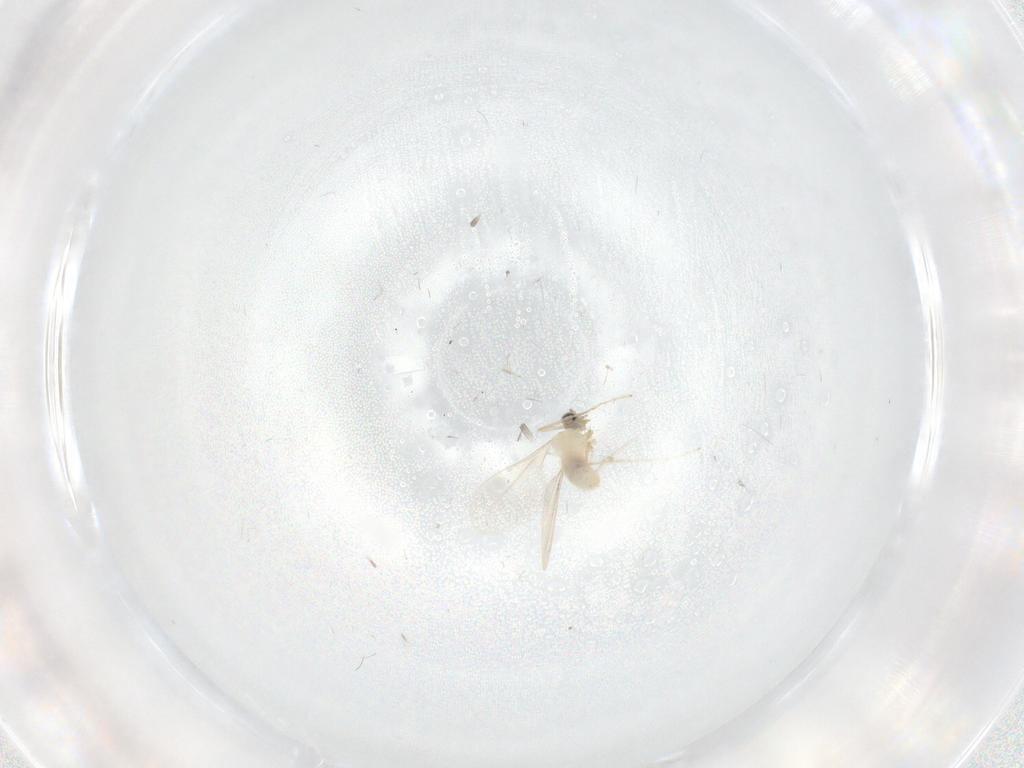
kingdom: Animalia
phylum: Arthropoda
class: Insecta
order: Diptera
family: Cecidomyiidae
